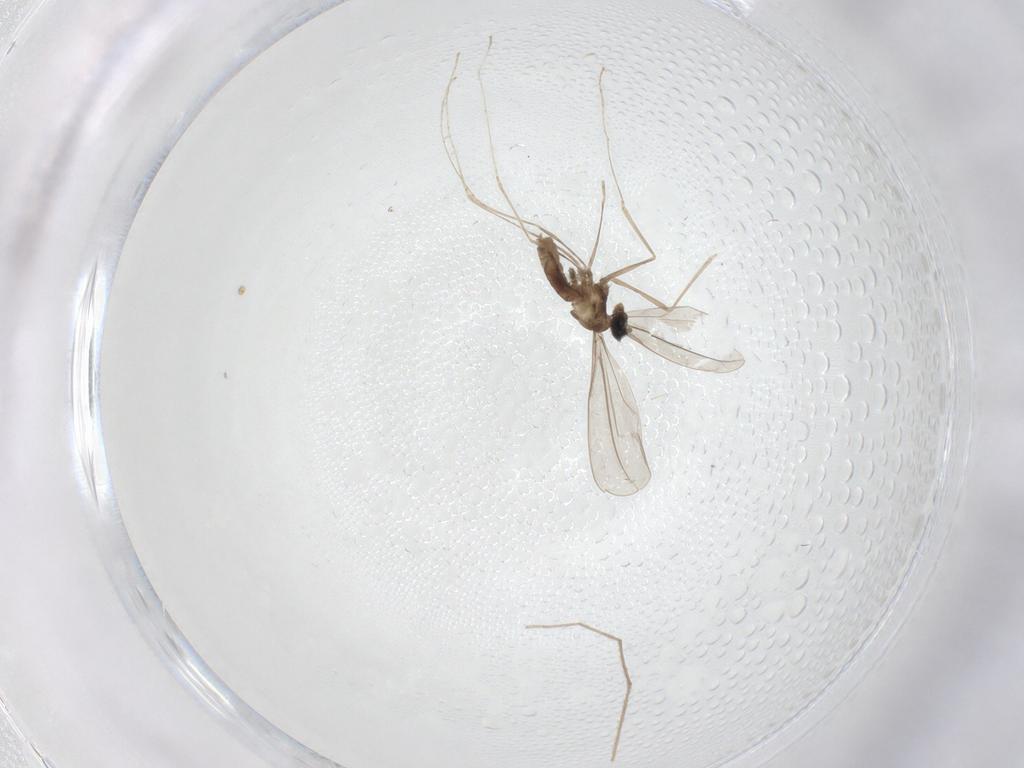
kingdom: Animalia
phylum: Arthropoda
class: Insecta
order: Diptera
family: Chironomidae
